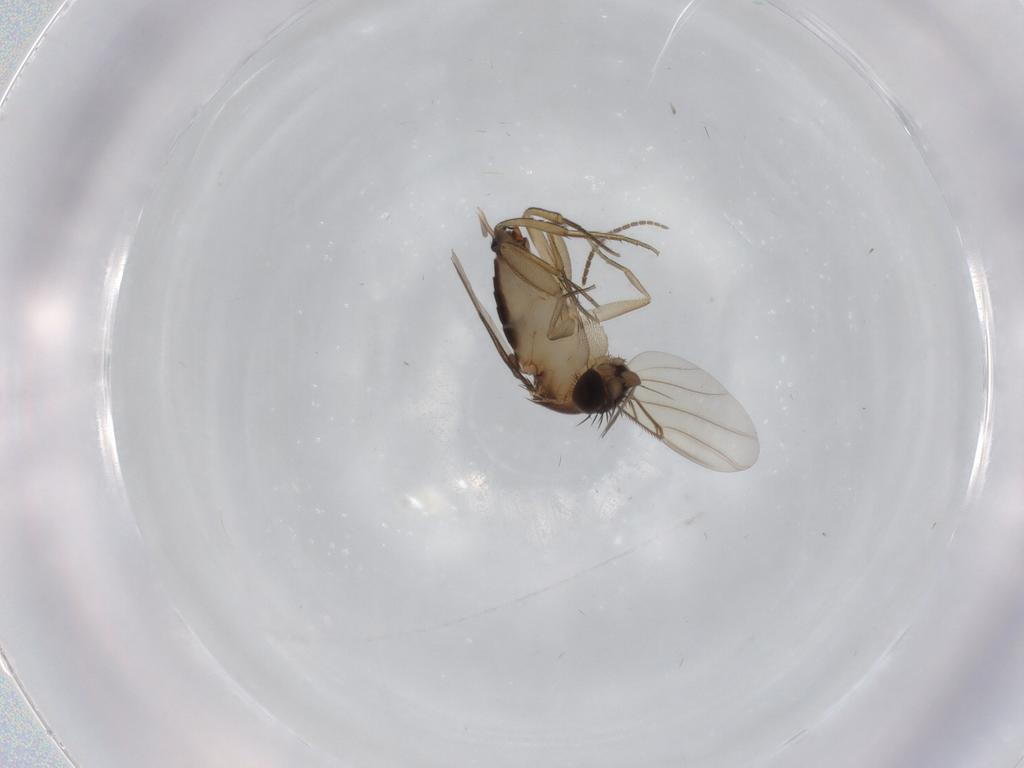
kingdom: Animalia
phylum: Arthropoda
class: Insecta
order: Diptera
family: Phoridae
